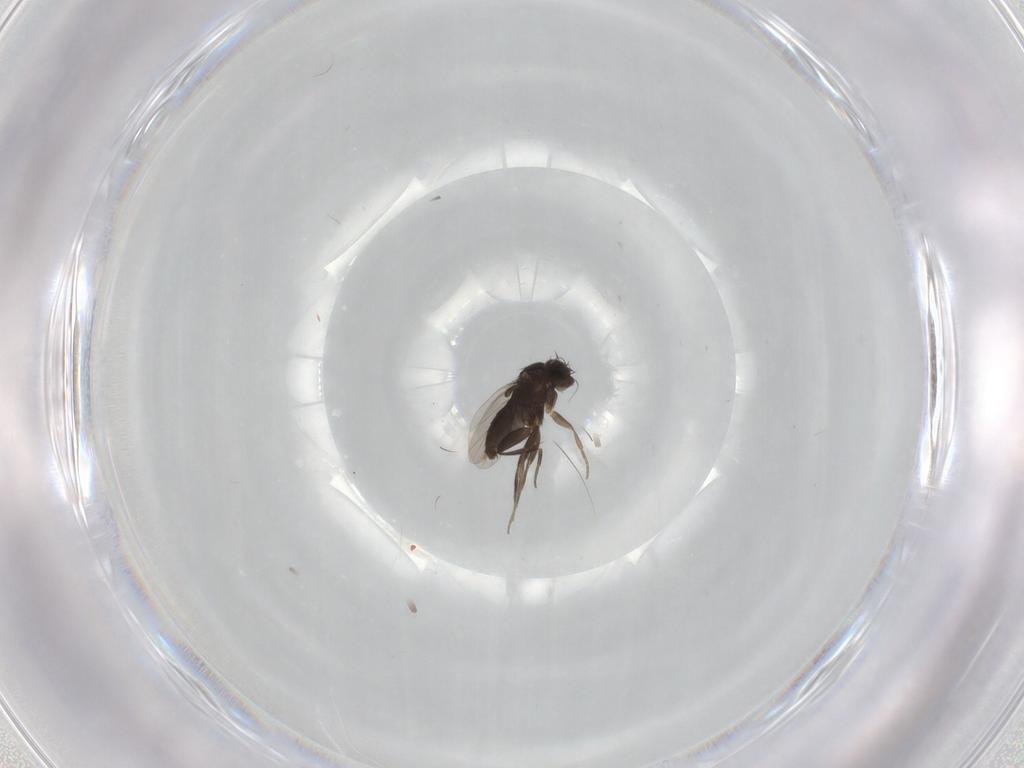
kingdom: Animalia
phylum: Arthropoda
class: Insecta
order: Diptera
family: Phoridae
